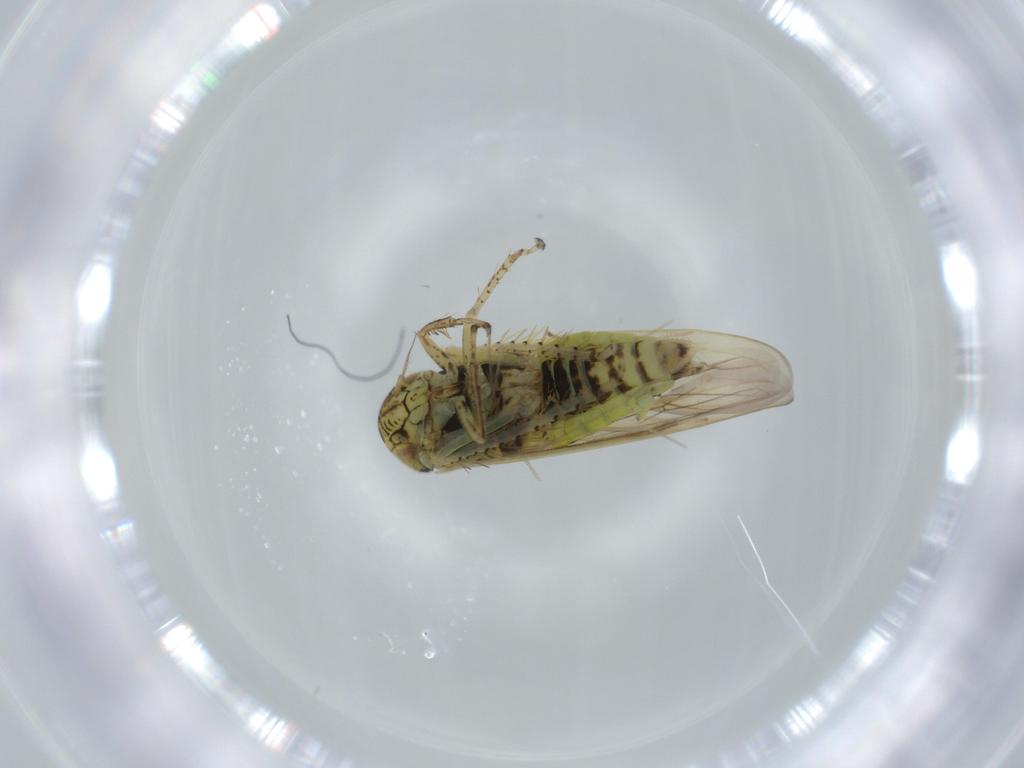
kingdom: Animalia
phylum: Arthropoda
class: Insecta
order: Hemiptera
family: Cicadellidae
